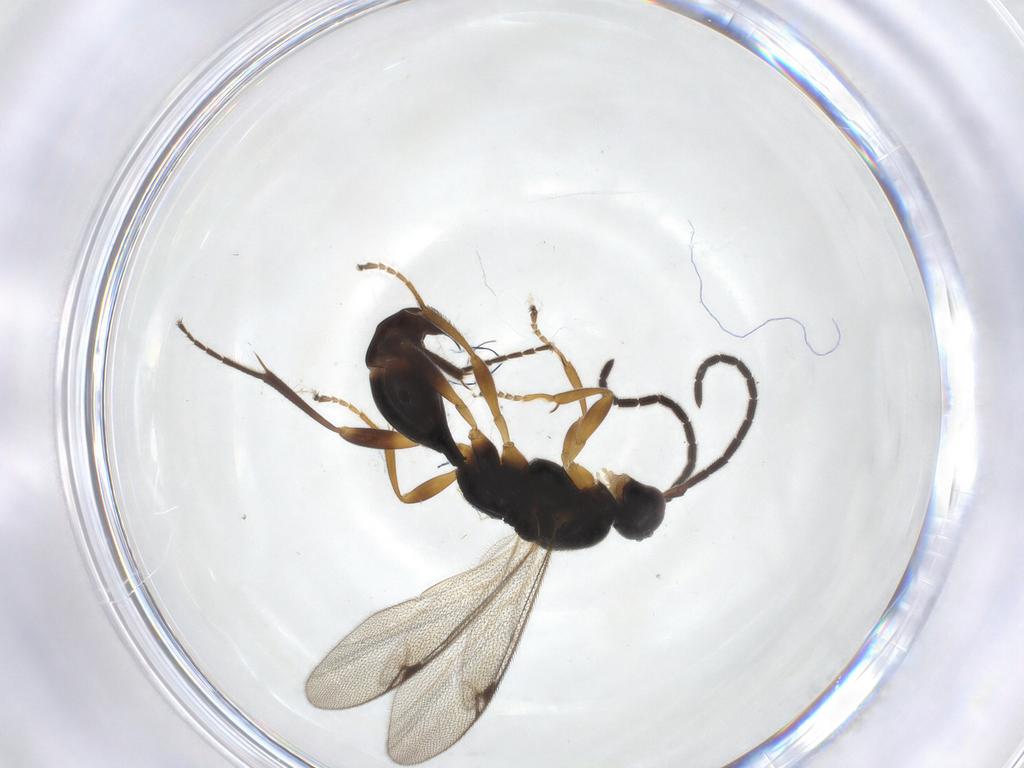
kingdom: Animalia
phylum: Arthropoda
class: Insecta
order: Hymenoptera
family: Proctotrupidae
